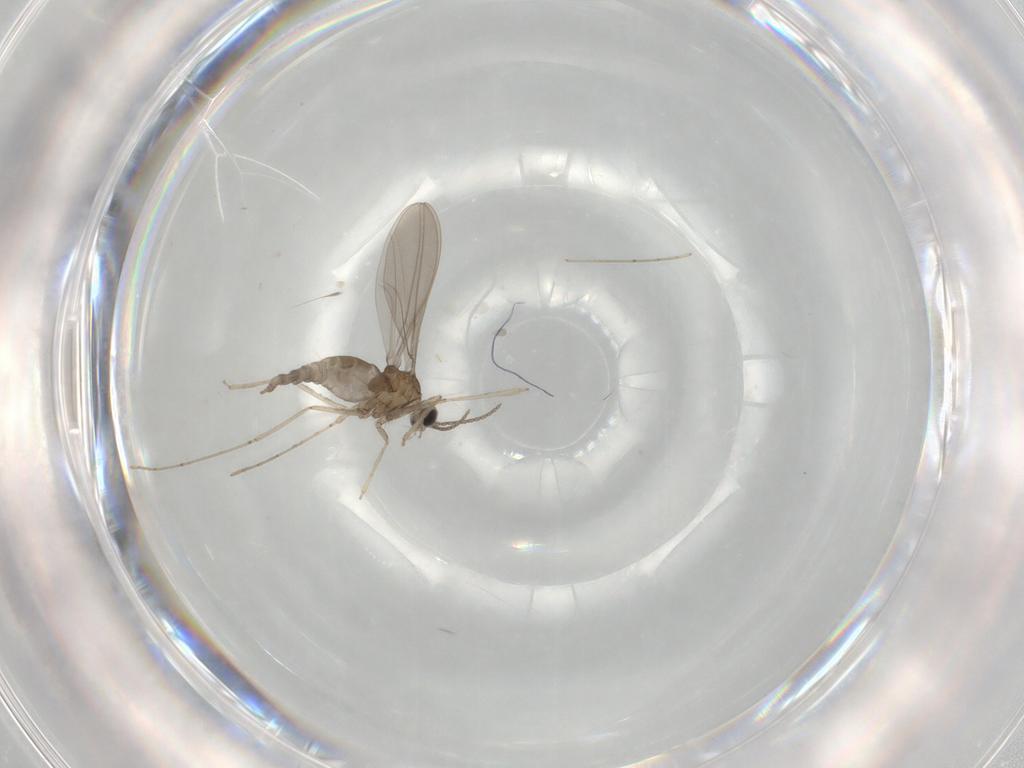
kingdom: Animalia
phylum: Arthropoda
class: Insecta
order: Diptera
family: Cecidomyiidae
